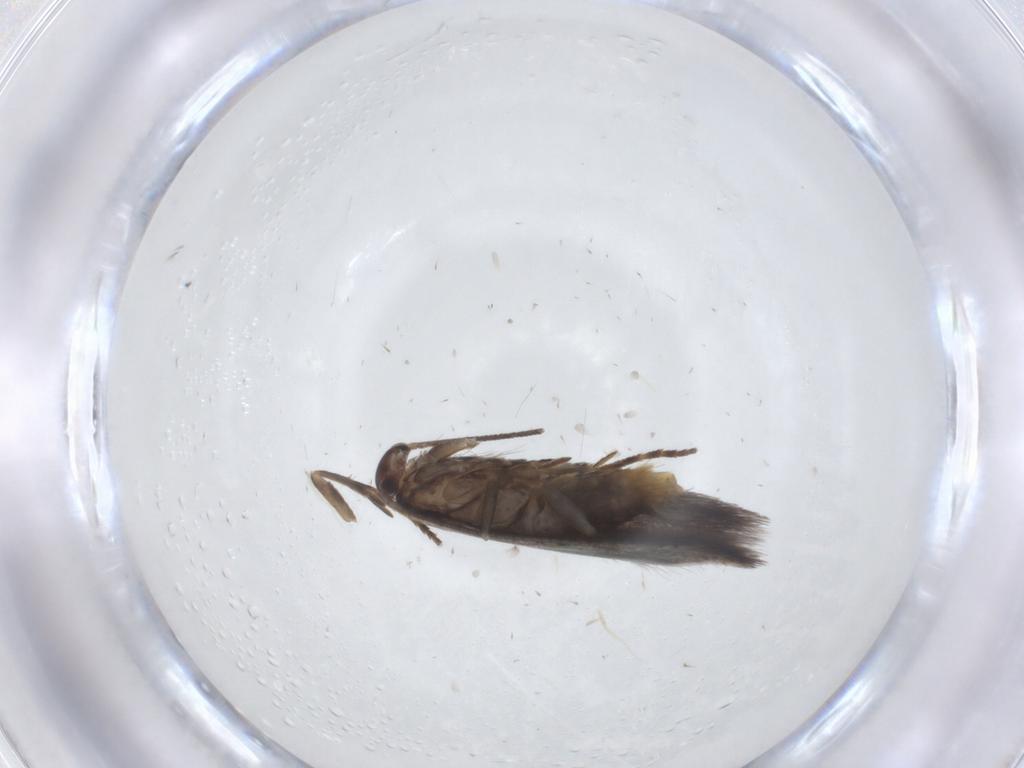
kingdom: Animalia
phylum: Arthropoda
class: Insecta
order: Lepidoptera
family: Elachistidae
